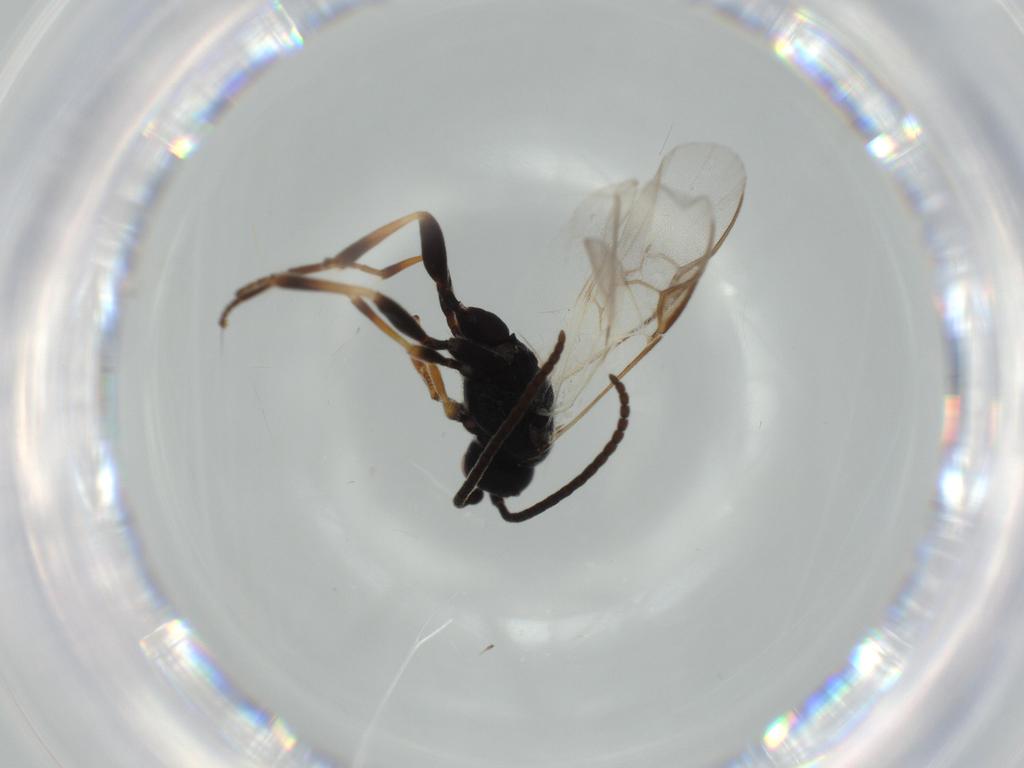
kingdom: Animalia
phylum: Arthropoda
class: Insecta
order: Hymenoptera
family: Braconidae
